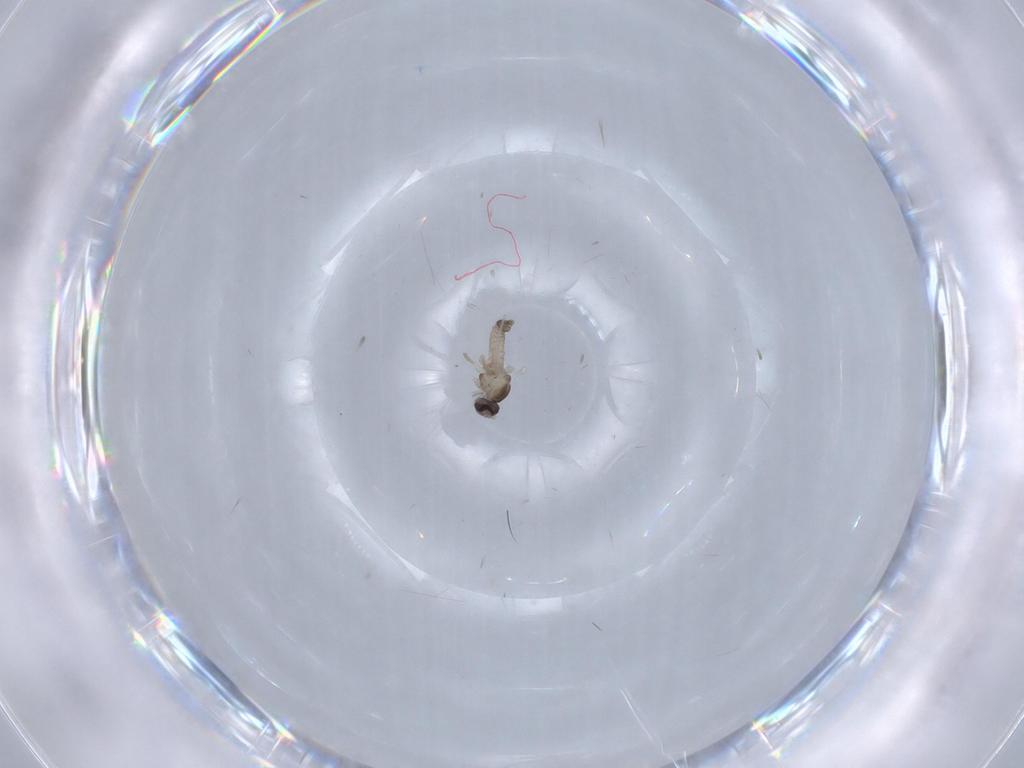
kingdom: Animalia
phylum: Arthropoda
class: Insecta
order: Diptera
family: Cecidomyiidae
